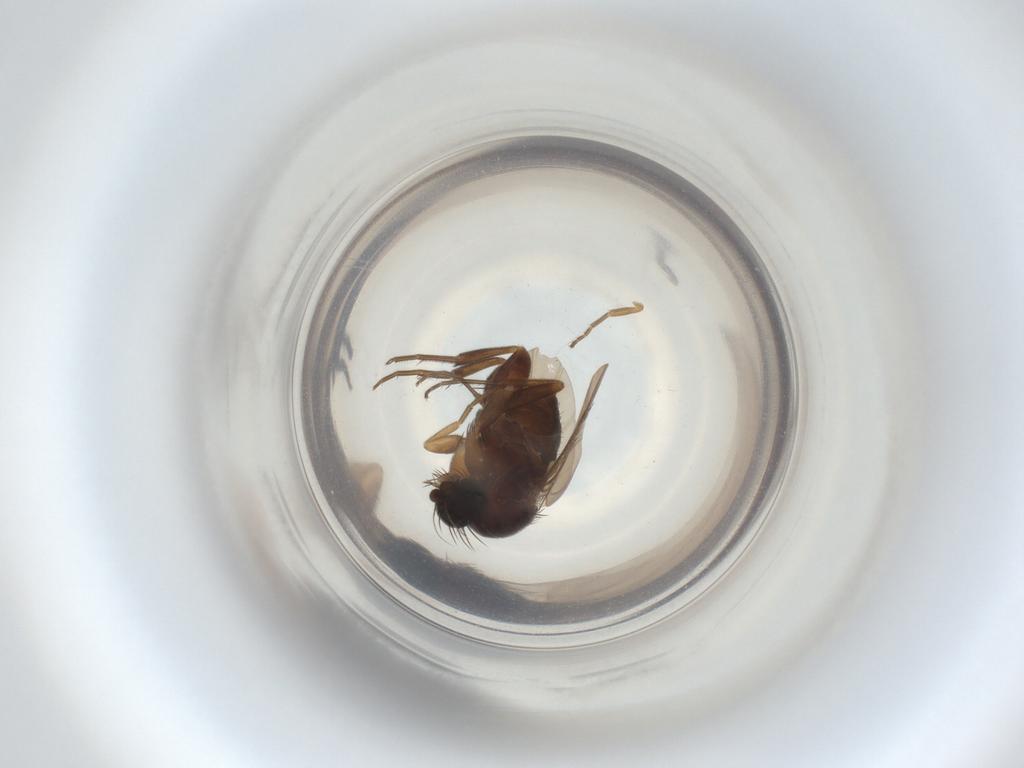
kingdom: Animalia
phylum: Arthropoda
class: Insecta
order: Diptera
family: Phoridae
